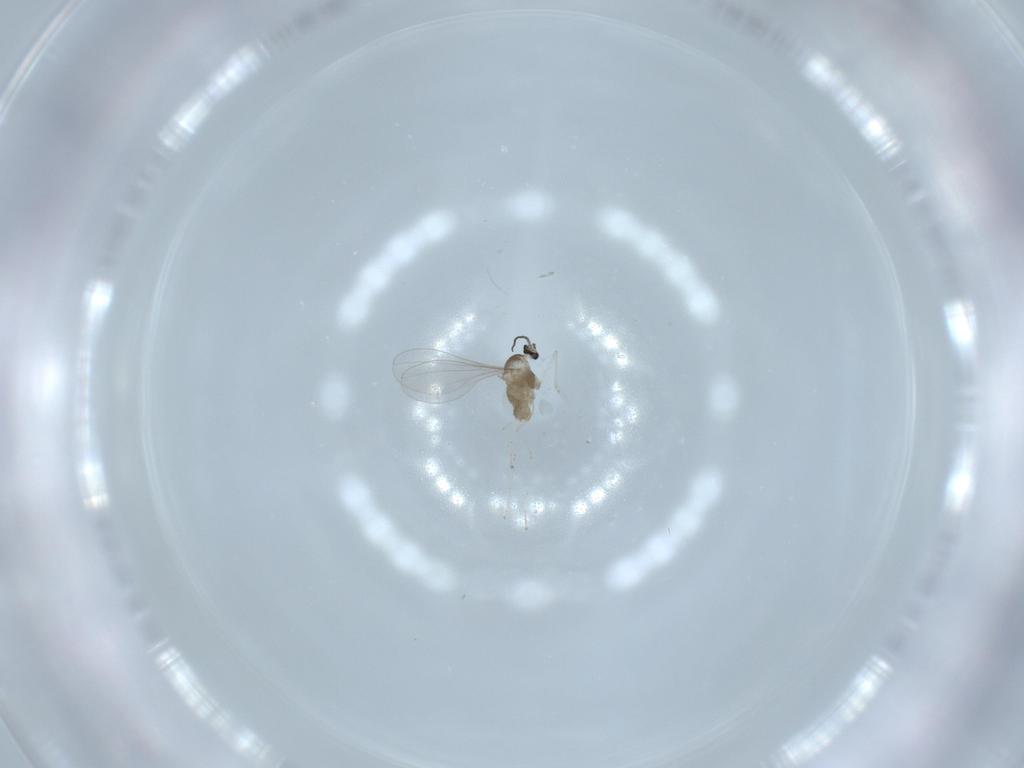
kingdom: Animalia
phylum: Arthropoda
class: Insecta
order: Diptera
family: Cecidomyiidae
